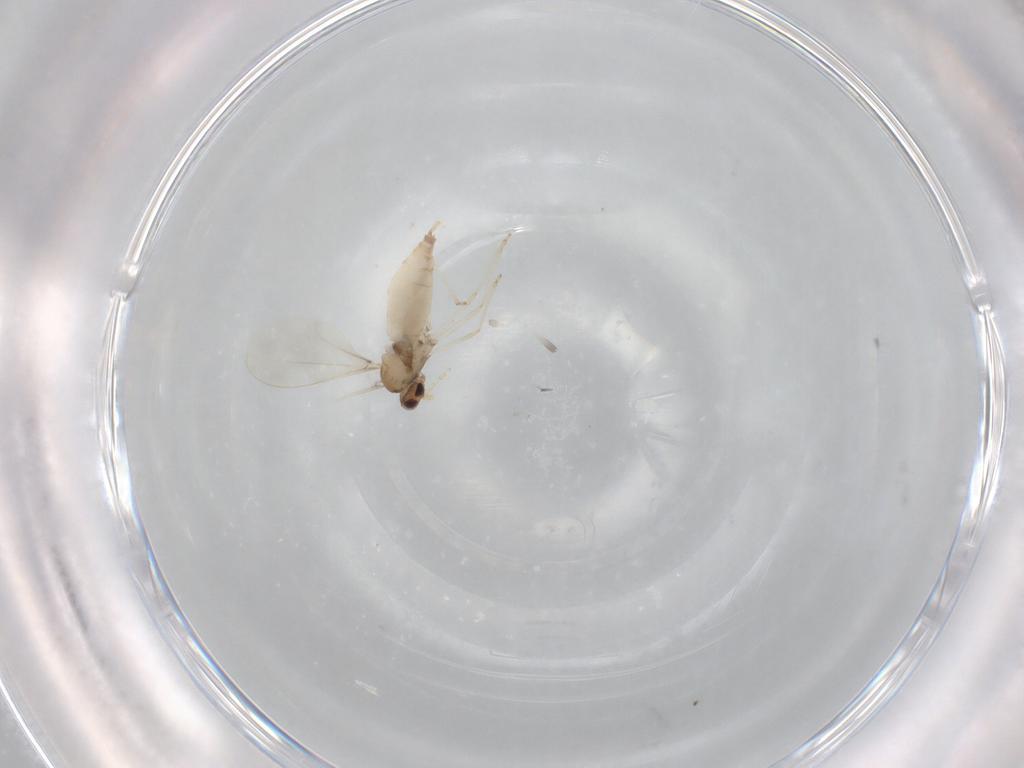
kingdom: Animalia
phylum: Arthropoda
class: Insecta
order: Diptera
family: Cecidomyiidae
